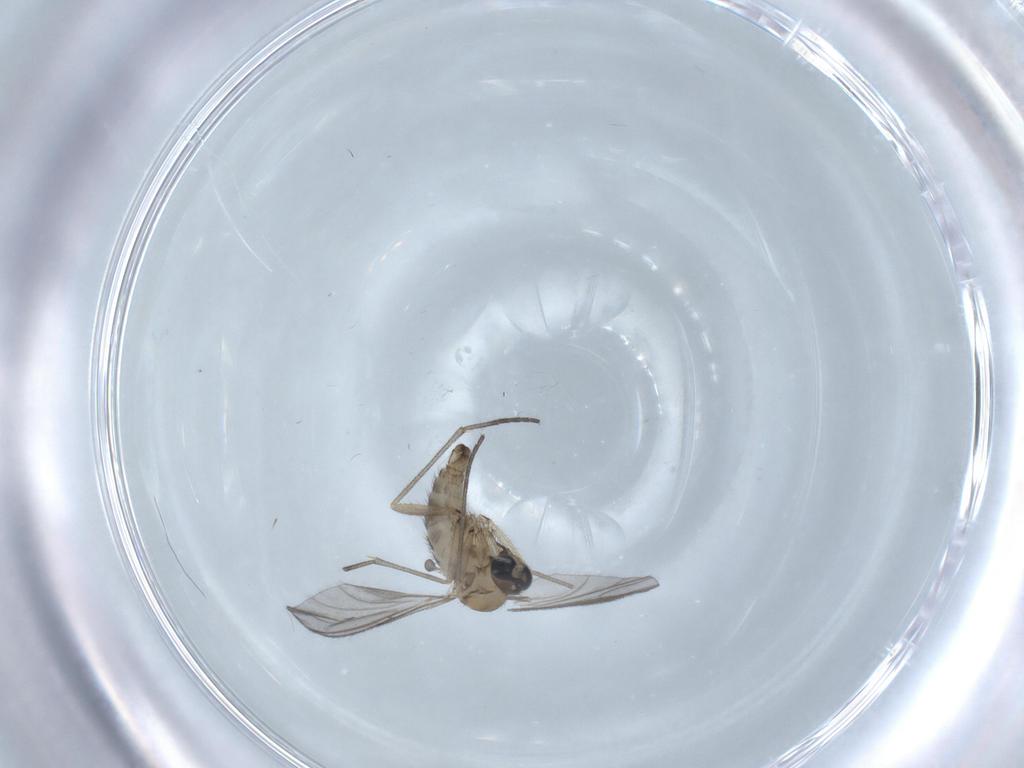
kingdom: Animalia
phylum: Arthropoda
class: Insecta
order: Diptera
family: Sciaridae
